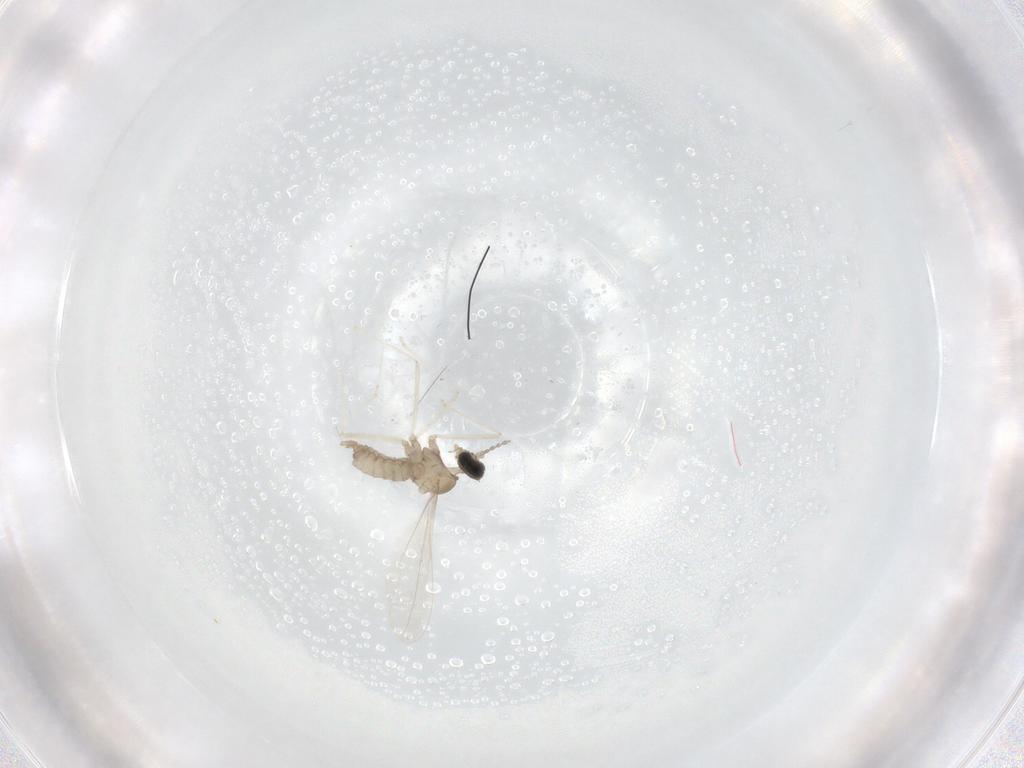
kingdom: Animalia
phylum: Arthropoda
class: Insecta
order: Diptera
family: Cecidomyiidae
